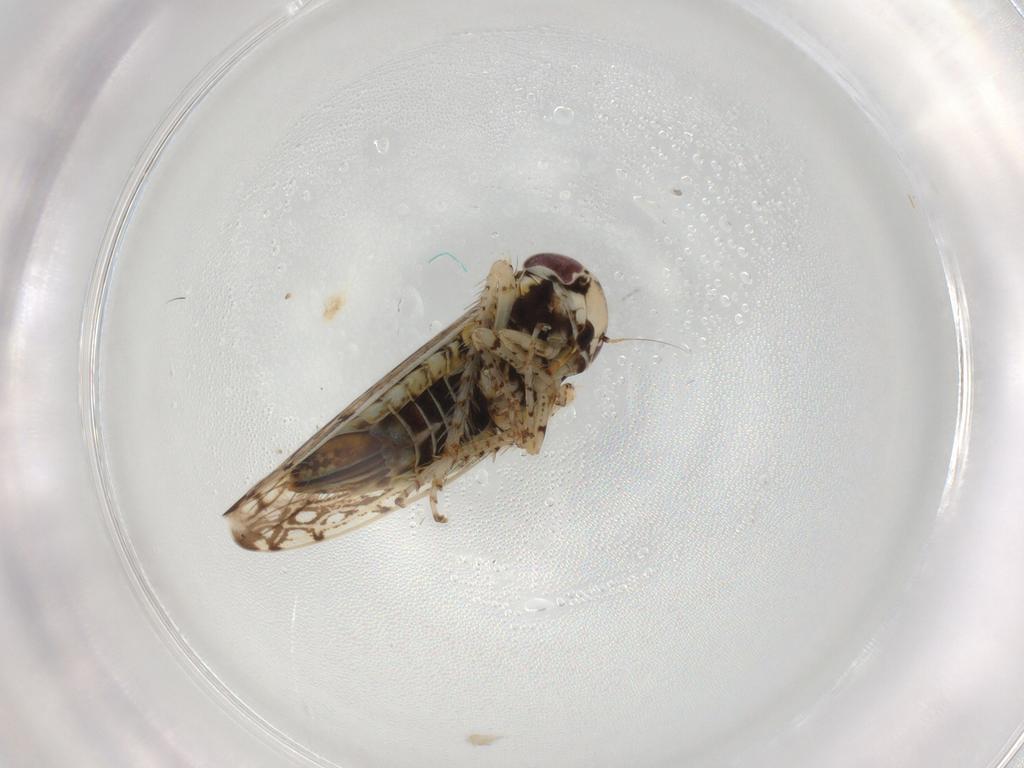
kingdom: Animalia
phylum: Arthropoda
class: Insecta
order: Hemiptera
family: Cicadellidae
